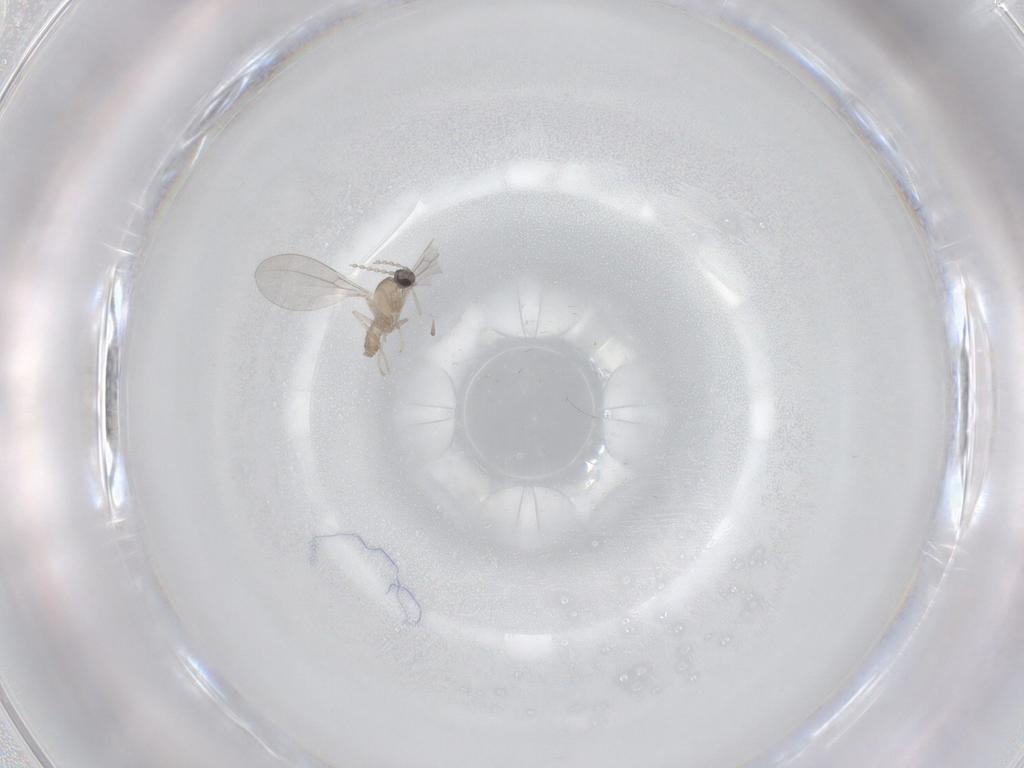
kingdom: Animalia
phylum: Arthropoda
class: Insecta
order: Diptera
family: Cecidomyiidae
